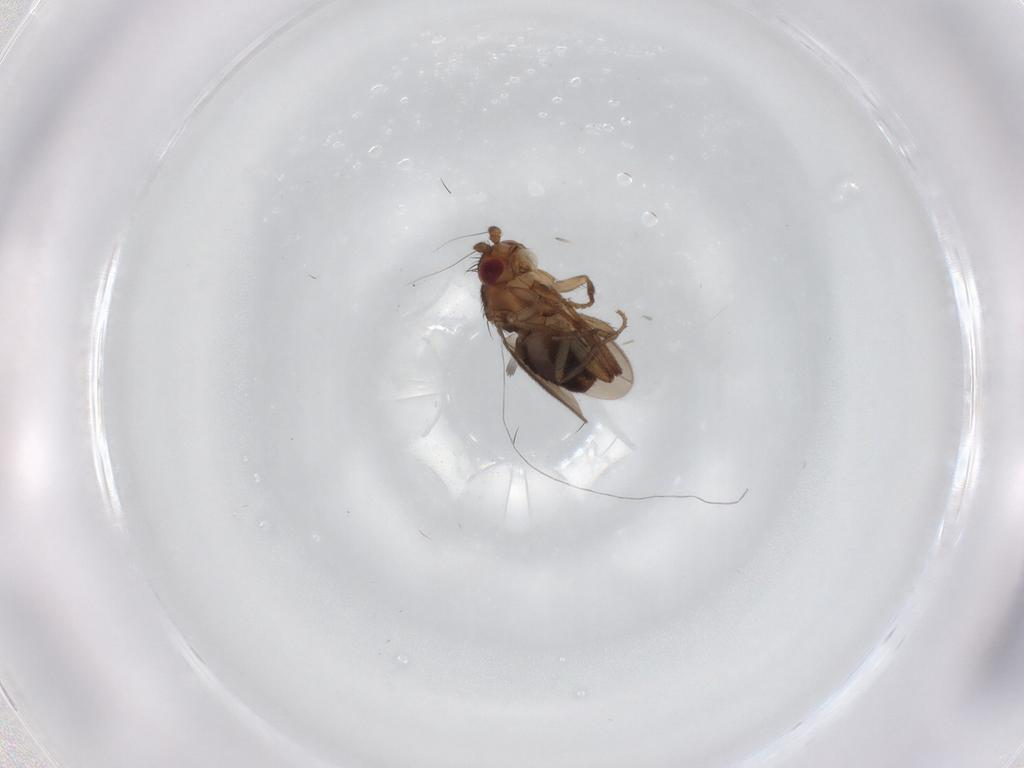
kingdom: Animalia
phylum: Arthropoda
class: Insecta
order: Diptera
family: Sphaeroceridae
